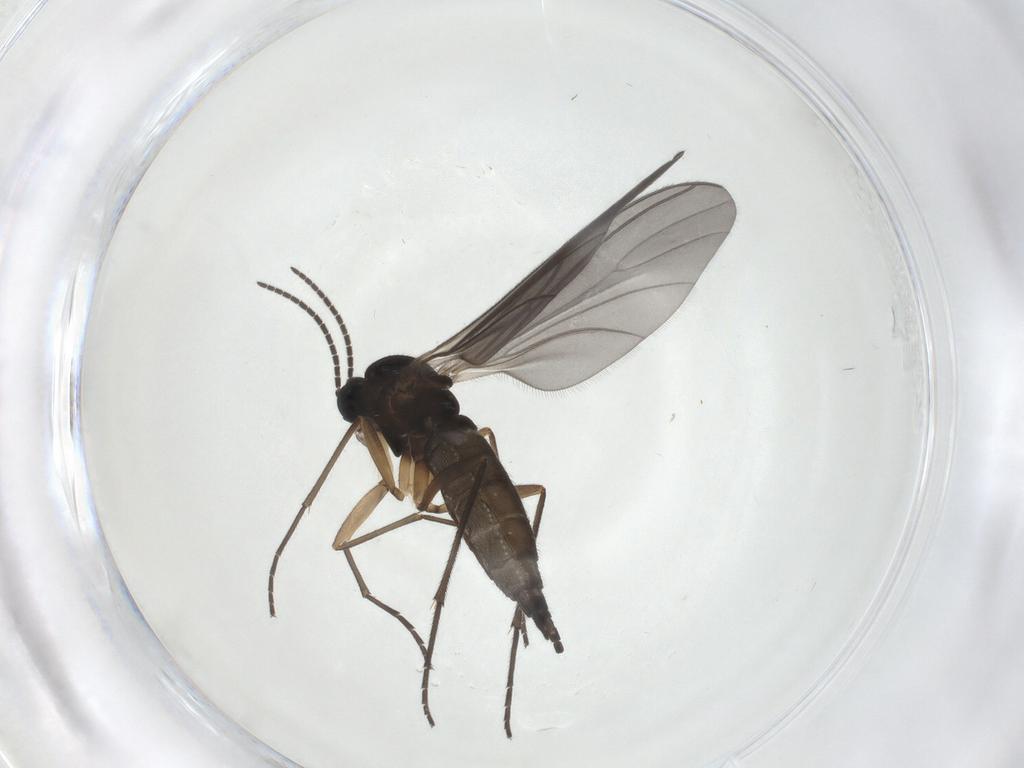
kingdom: Animalia
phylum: Arthropoda
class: Insecta
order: Diptera
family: Sciaridae
